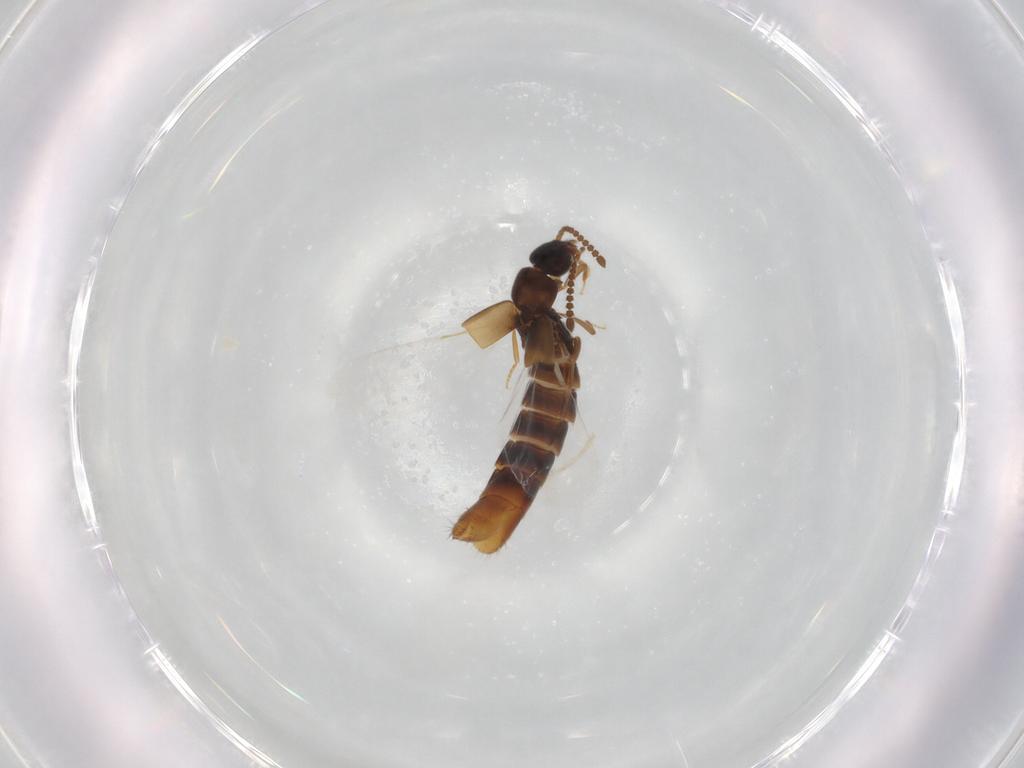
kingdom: Animalia
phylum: Arthropoda
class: Insecta
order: Coleoptera
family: Staphylinidae
